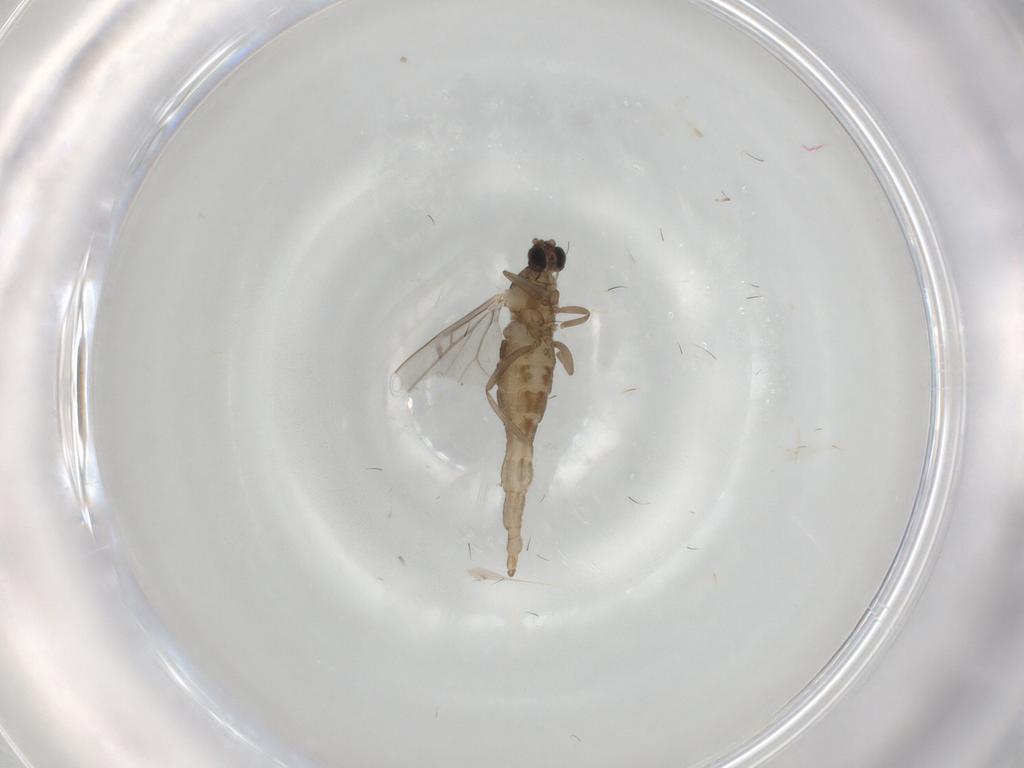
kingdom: Animalia
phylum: Arthropoda
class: Insecta
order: Diptera
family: Cecidomyiidae
